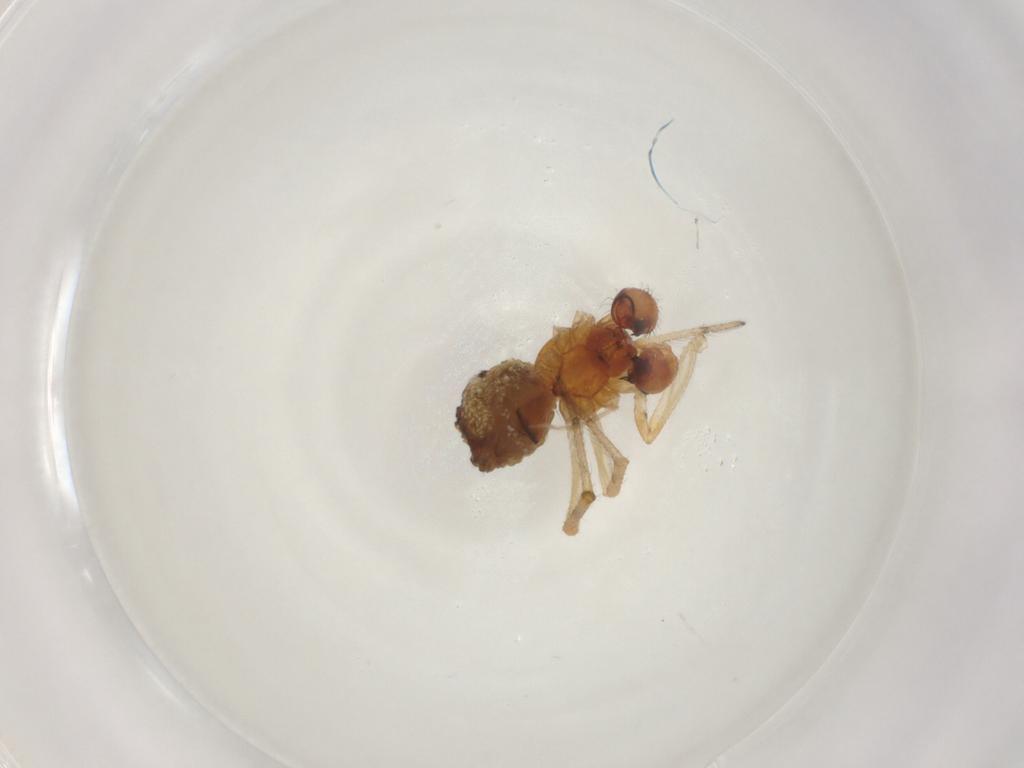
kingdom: Animalia
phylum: Arthropoda
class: Arachnida
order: Araneae
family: Theridiidae
